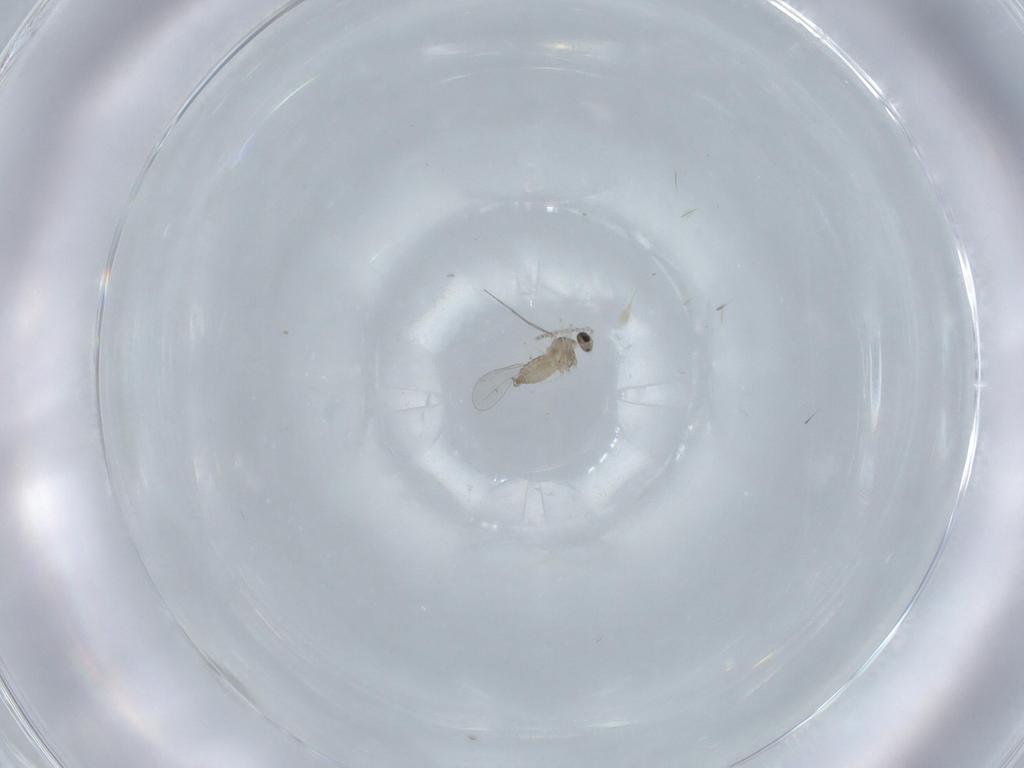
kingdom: Animalia
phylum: Arthropoda
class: Insecta
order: Diptera
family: Cecidomyiidae
